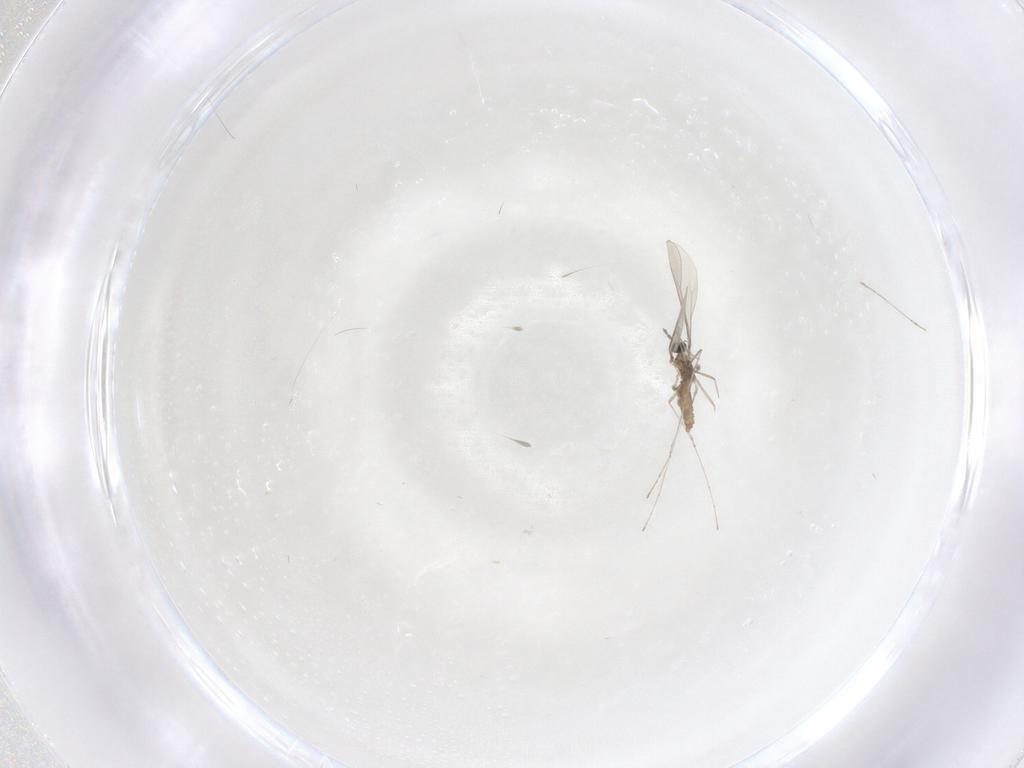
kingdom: Animalia
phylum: Arthropoda
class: Insecta
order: Diptera
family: Cecidomyiidae
